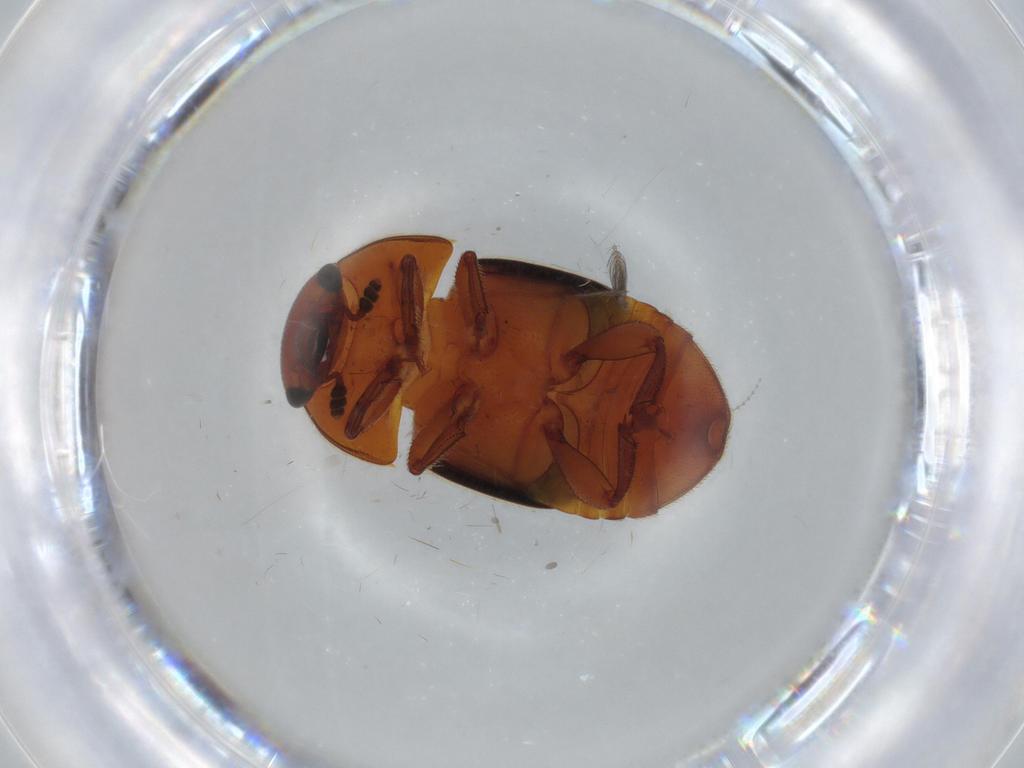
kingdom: Animalia
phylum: Arthropoda
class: Insecta
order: Coleoptera
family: Nitidulidae
